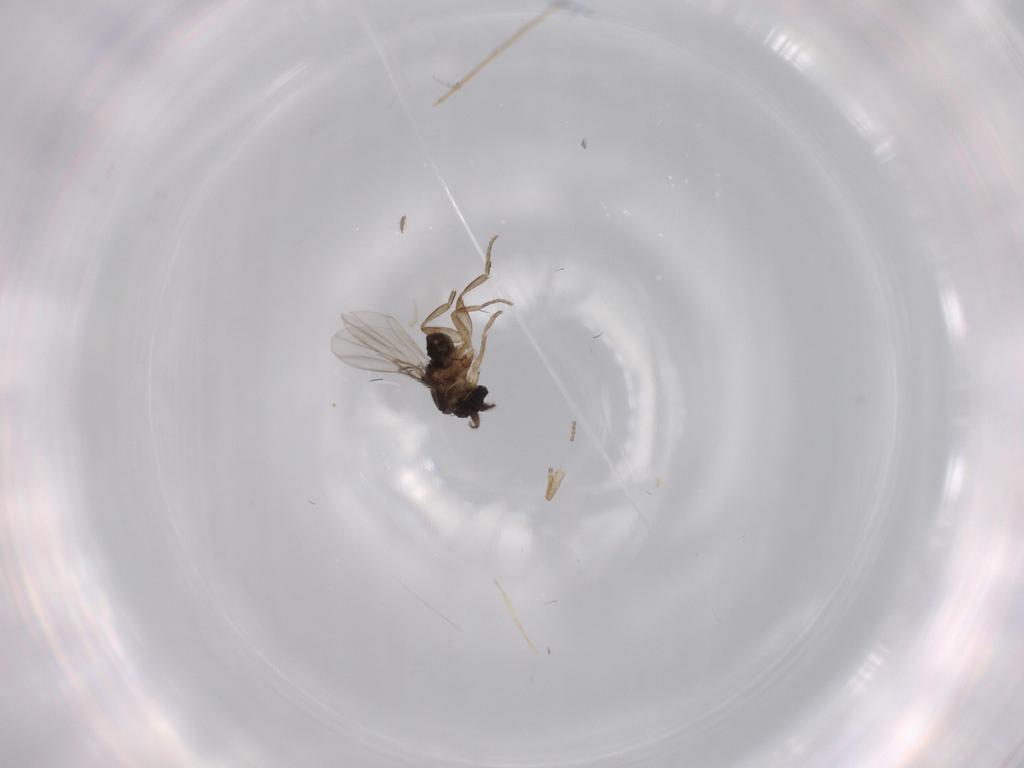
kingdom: Animalia
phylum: Arthropoda
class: Insecta
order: Diptera
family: Phoridae
